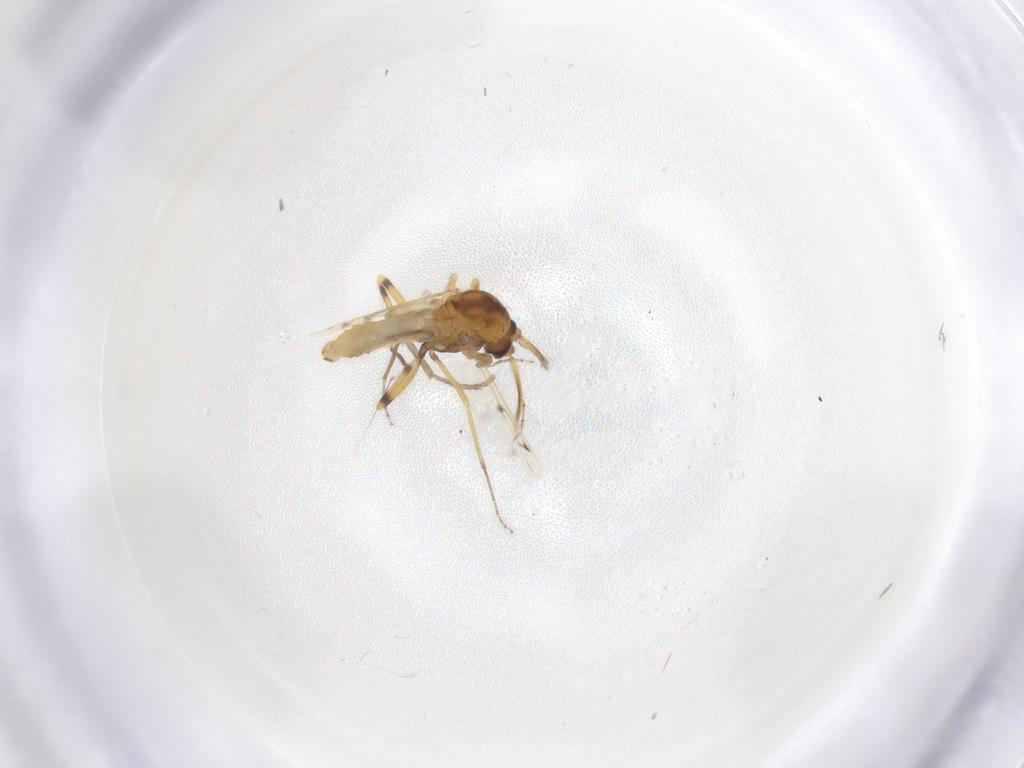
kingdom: Animalia
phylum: Arthropoda
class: Insecta
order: Diptera
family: Ceratopogonidae
